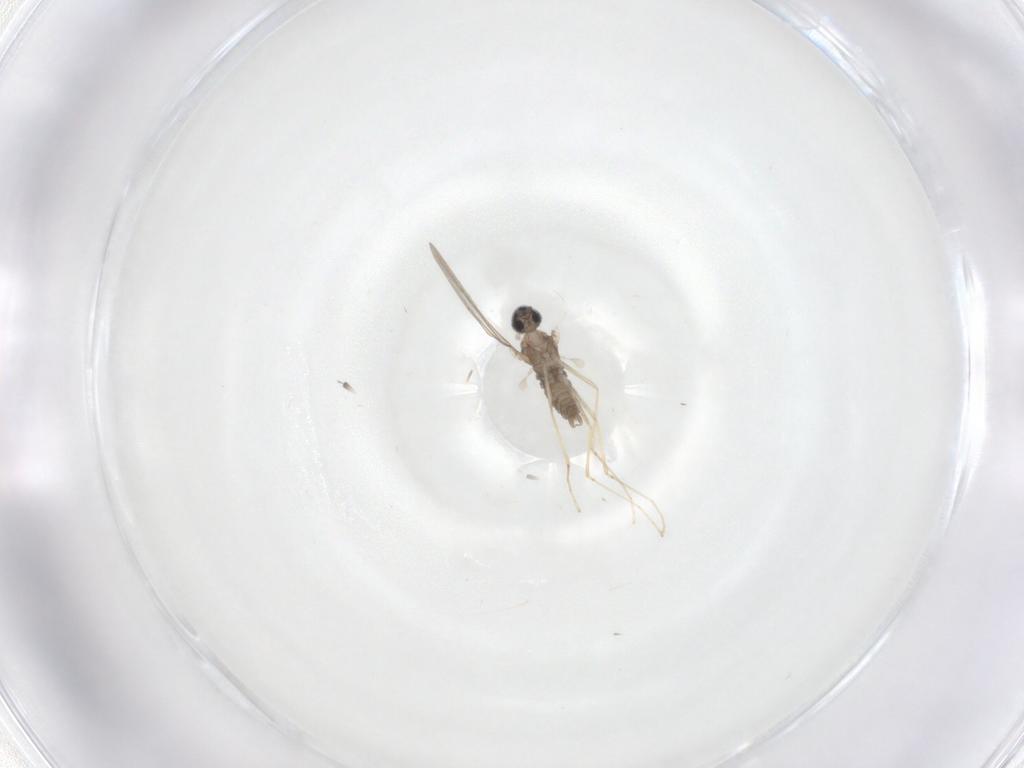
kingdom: Animalia
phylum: Arthropoda
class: Insecta
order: Diptera
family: Cecidomyiidae
